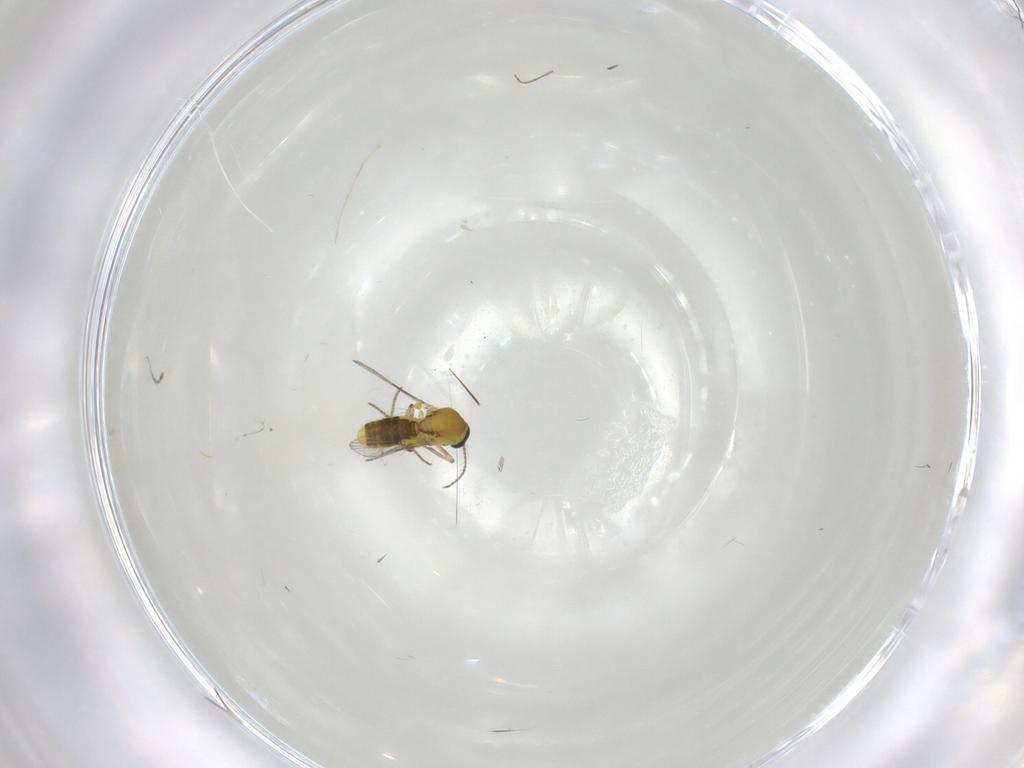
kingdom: Animalia
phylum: Arthropoda
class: Insecta
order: Diptera
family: Sciaridae
